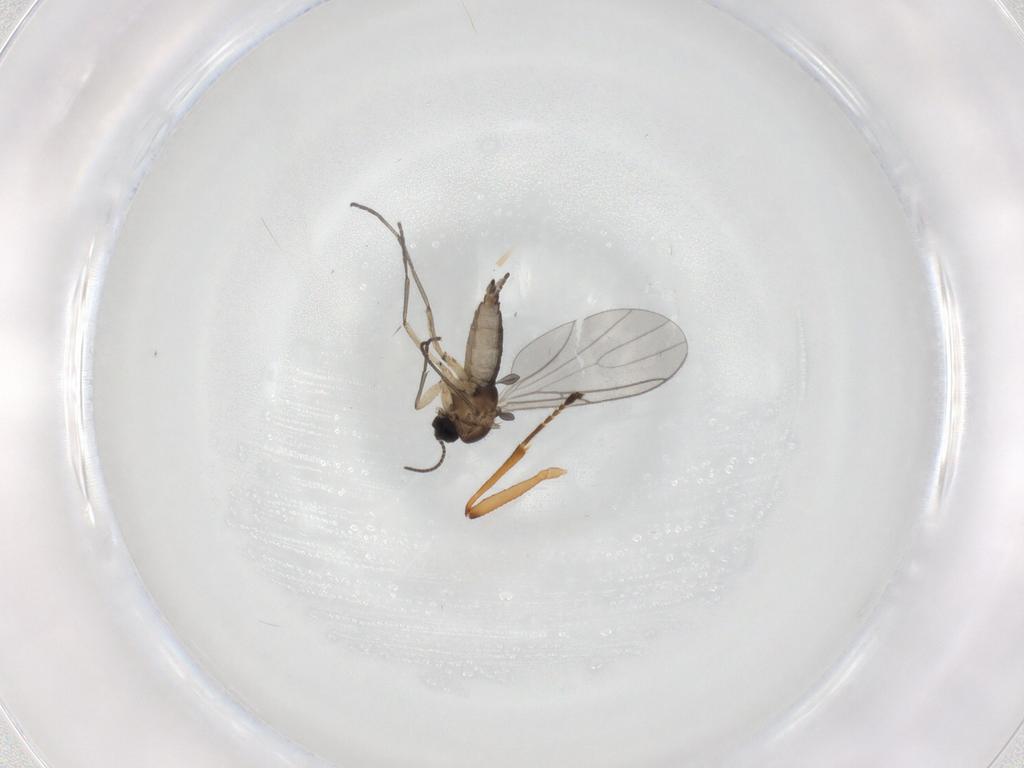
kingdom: Animalia
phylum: Arthropoda
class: Insecta
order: Diptera
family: Sciaridae
